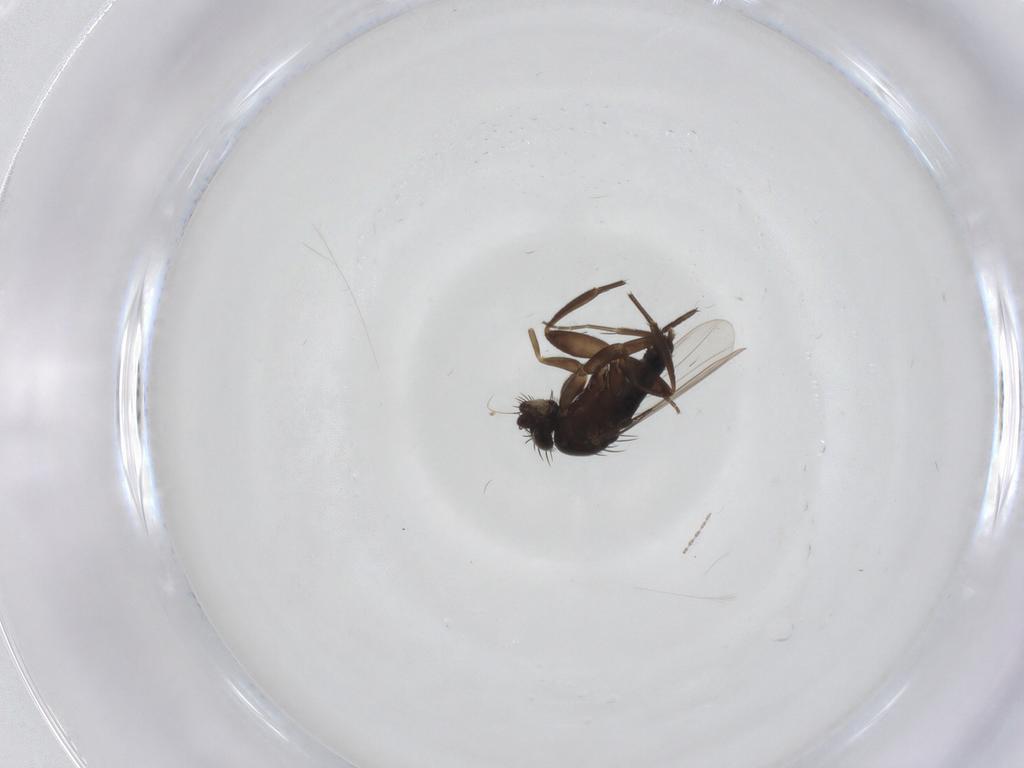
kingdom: Animalia
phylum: Arthropoda
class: Insecta
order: Diptera
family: Cecidomyiidae
